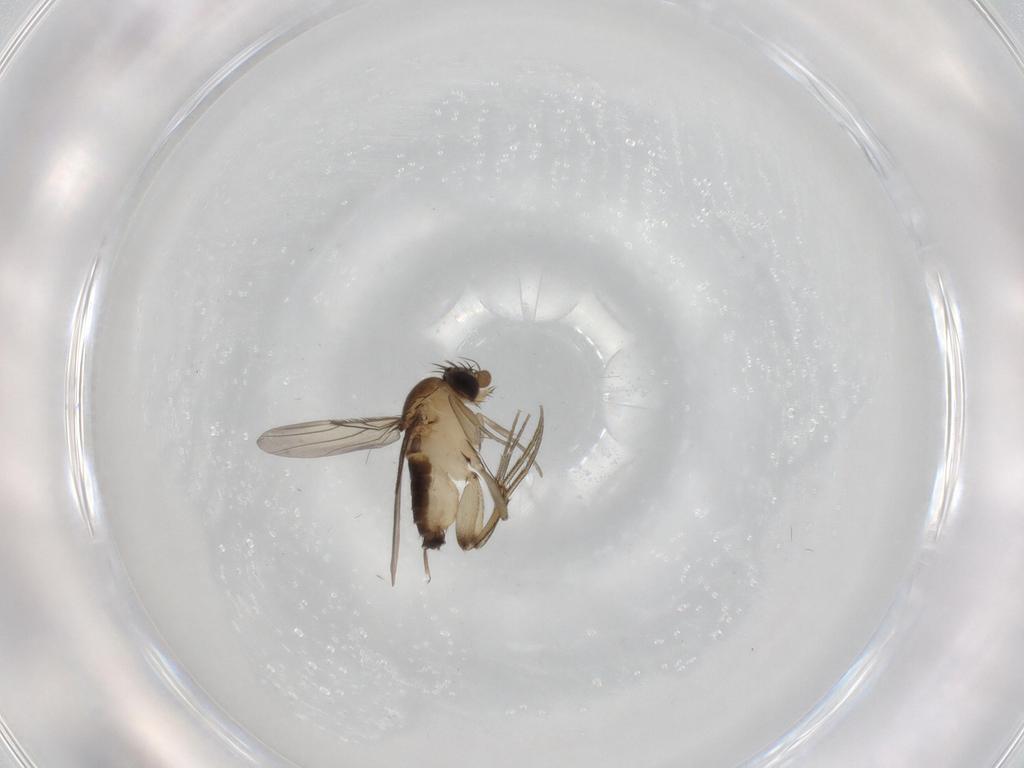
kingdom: Animalia
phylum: Arthropoda
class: Insecta
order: Diptera
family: Phoridae
